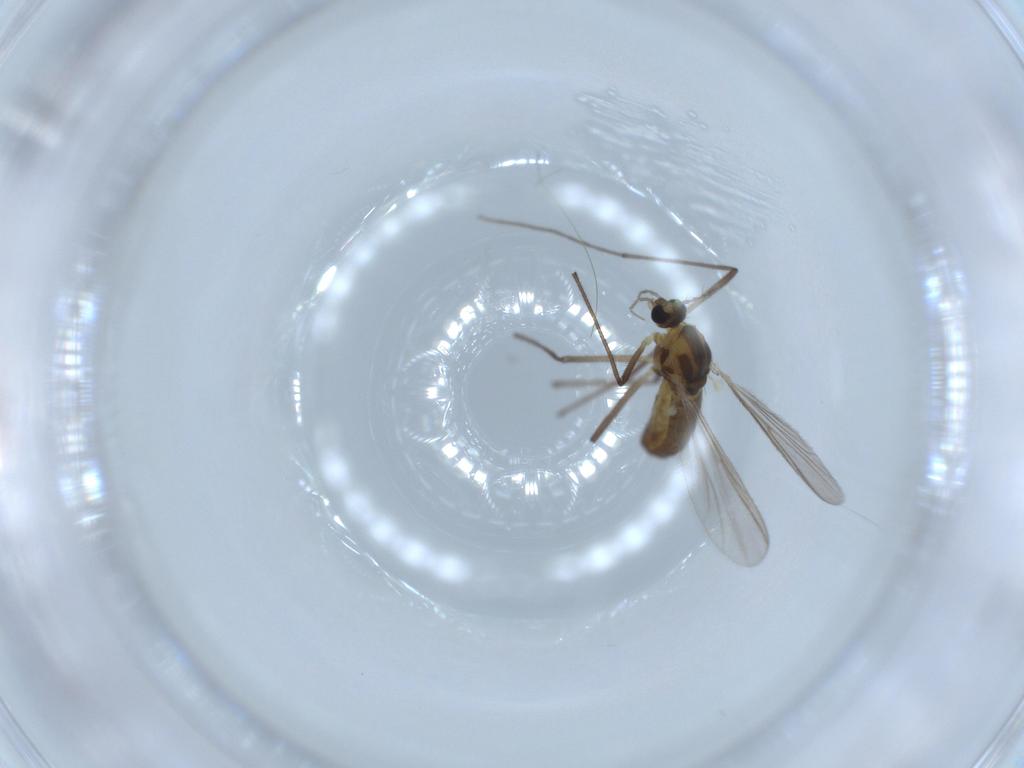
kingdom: Animalia
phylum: Arthropoda
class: Insecta
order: Diptera
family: Chironomidae
